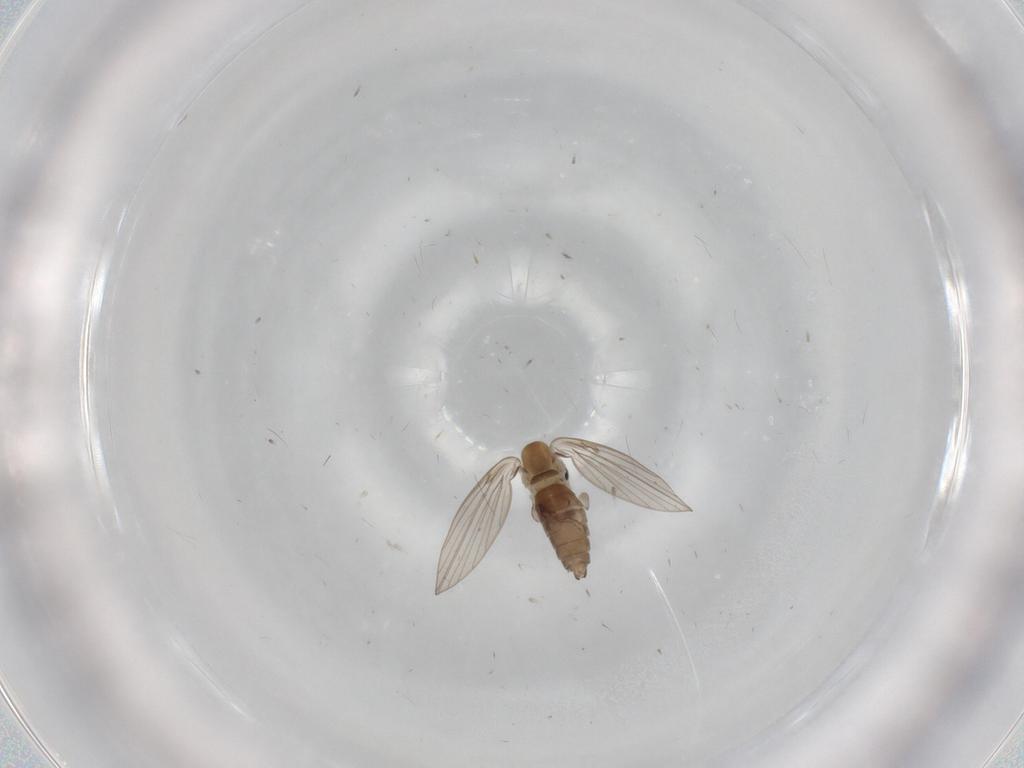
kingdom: Animalia
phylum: Arthropoda
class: Insecta
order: Diptera
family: Psychodidae
